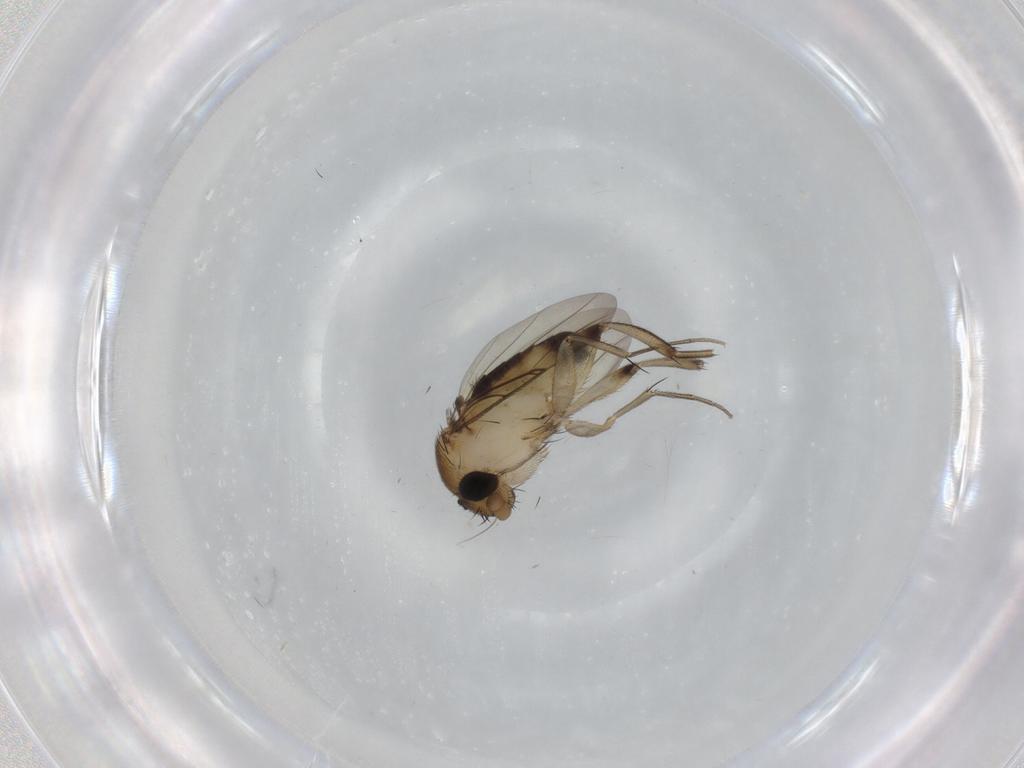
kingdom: Animalia
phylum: Arthropoda
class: Insecta
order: Diptera
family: Phoridae
